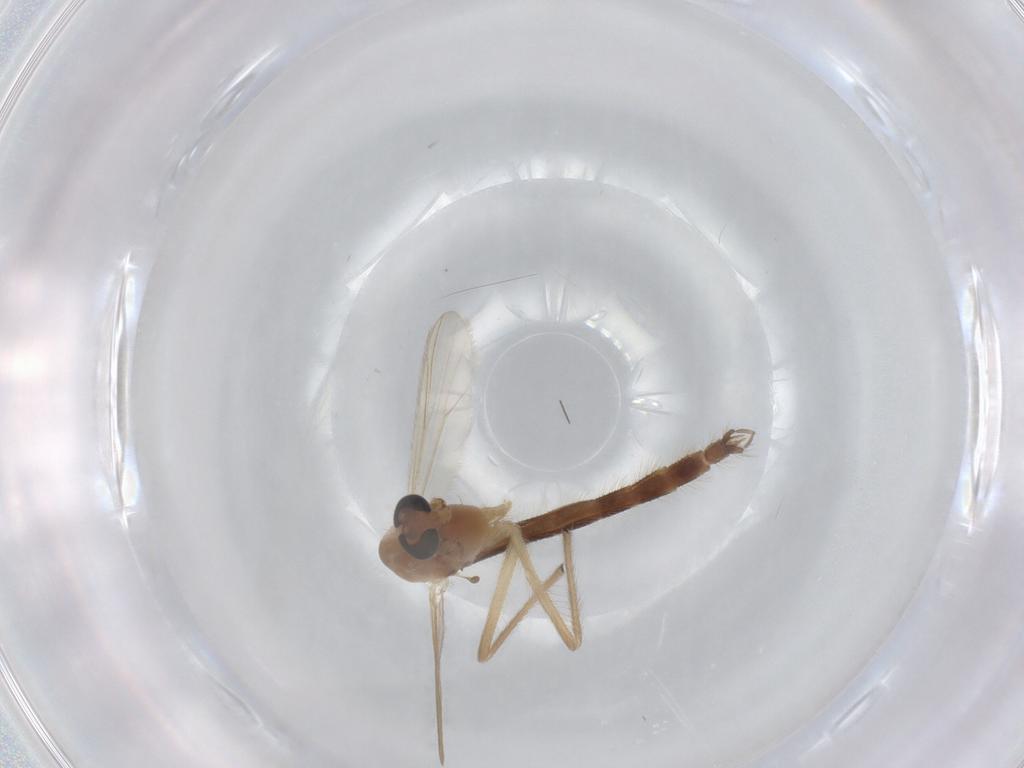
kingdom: Animalia
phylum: Arthropoda
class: Insecta
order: Diptera
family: Chironomidae
